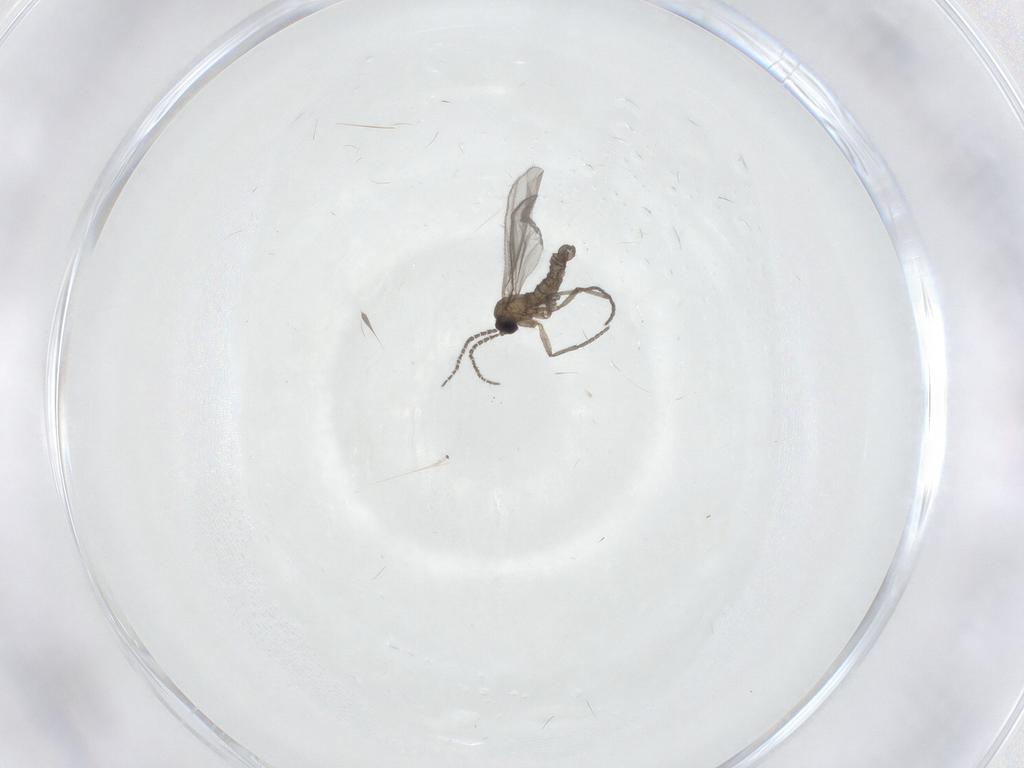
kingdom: Animalia
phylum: Arthropoda
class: Insecta
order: Diptera
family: Sciaridae
